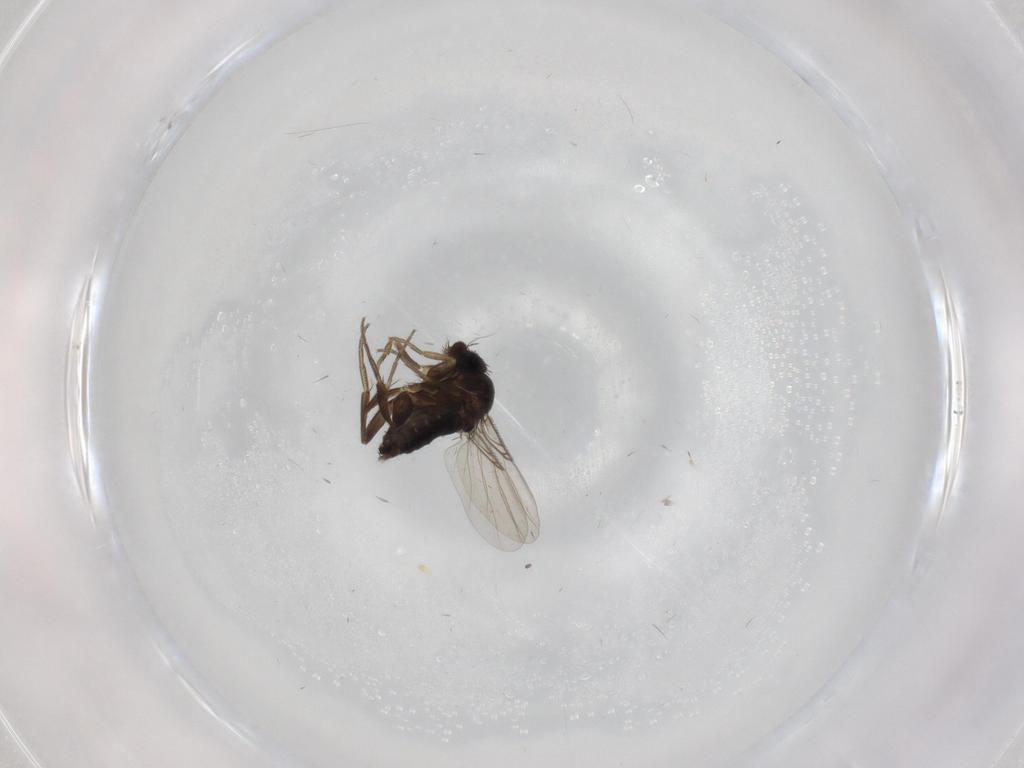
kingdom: Animalia
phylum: Arthropoda
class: Insecta
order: Diptera
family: Phoridae
